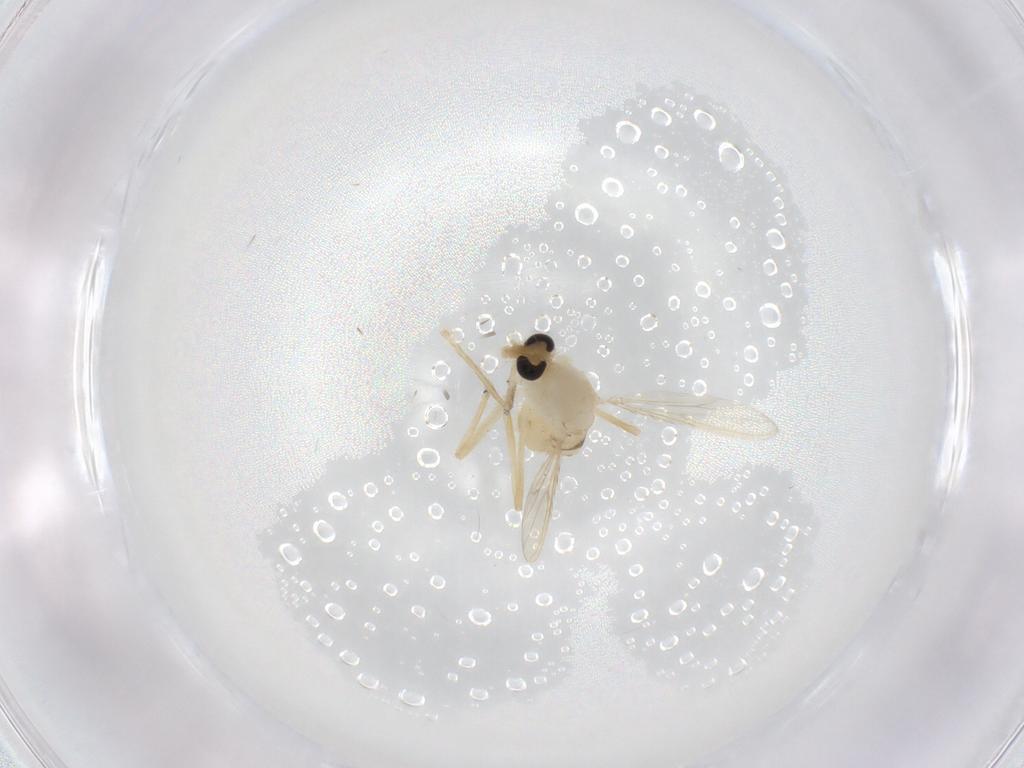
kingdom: Animalia
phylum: Arthropoda
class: Insecta
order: Diptera
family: Chironomidae
